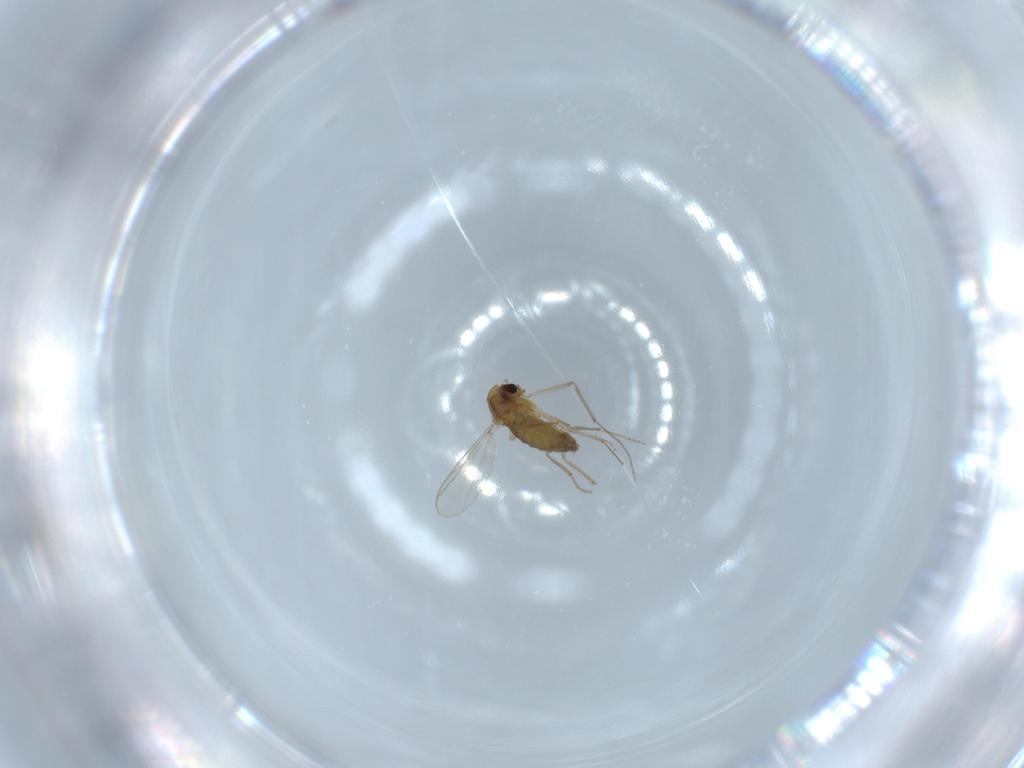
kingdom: Animalia
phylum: Arthropoda
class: Insecta
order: Diptera
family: Chironomidae
